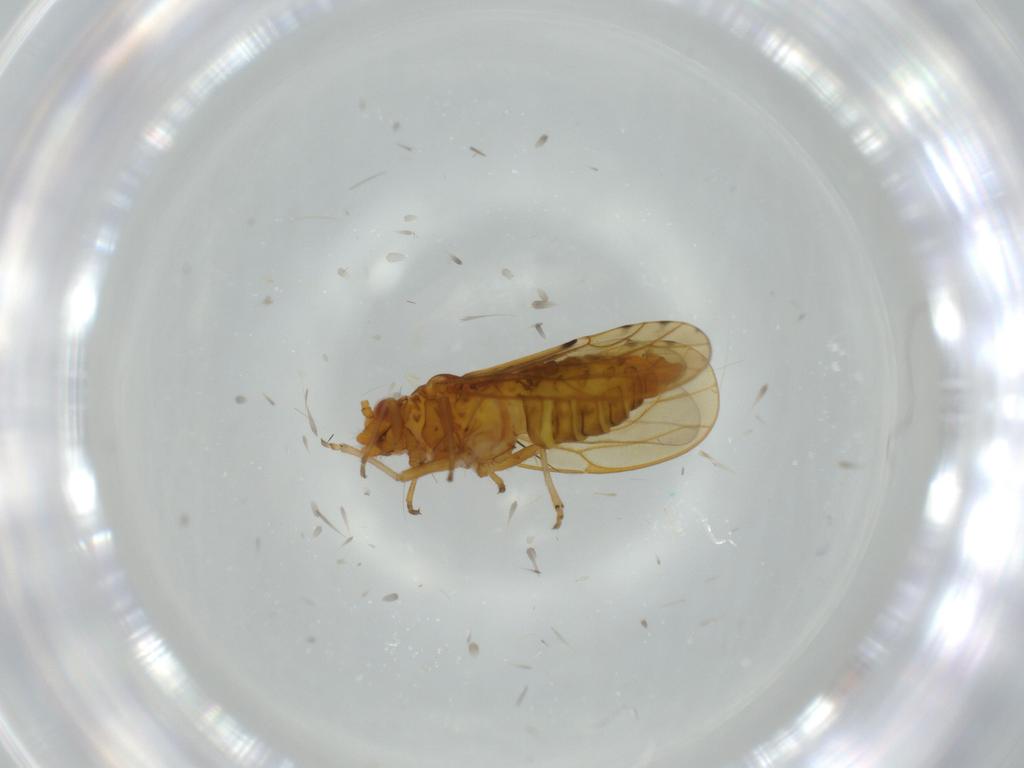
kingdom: Animalia
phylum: Arthropoda
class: Insecta
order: Hemiptera
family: Psylloidea_incertae_sedis
